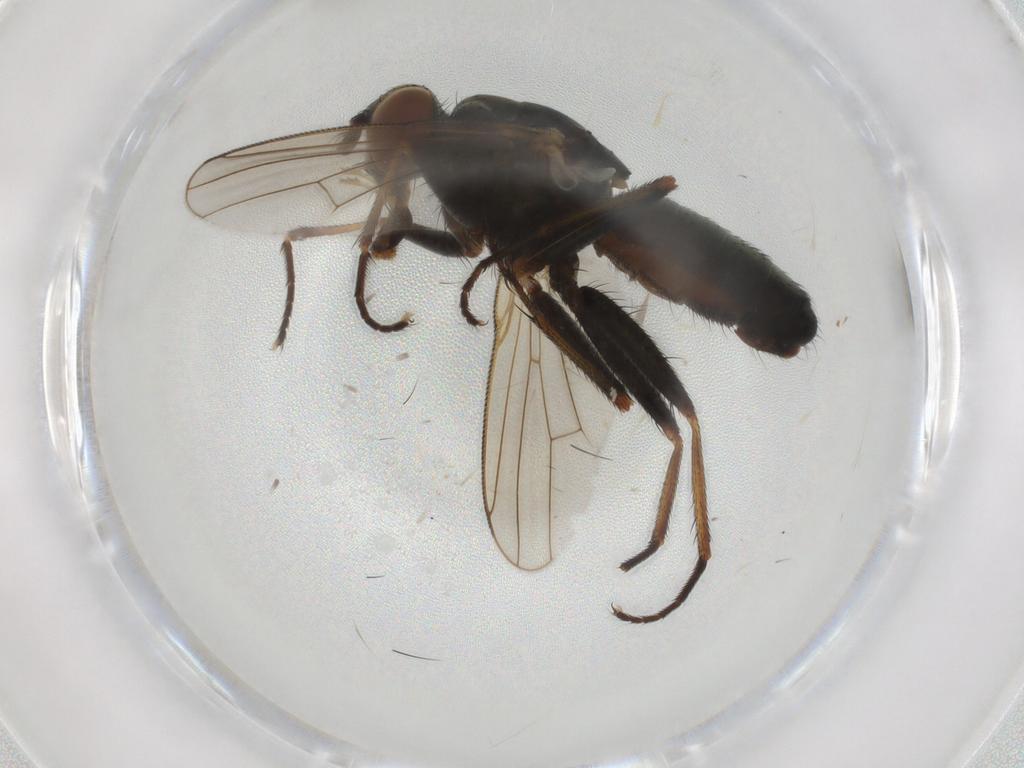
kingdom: Animalia
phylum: Arthropoda
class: Insecta
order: Diptera
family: Muscidae
